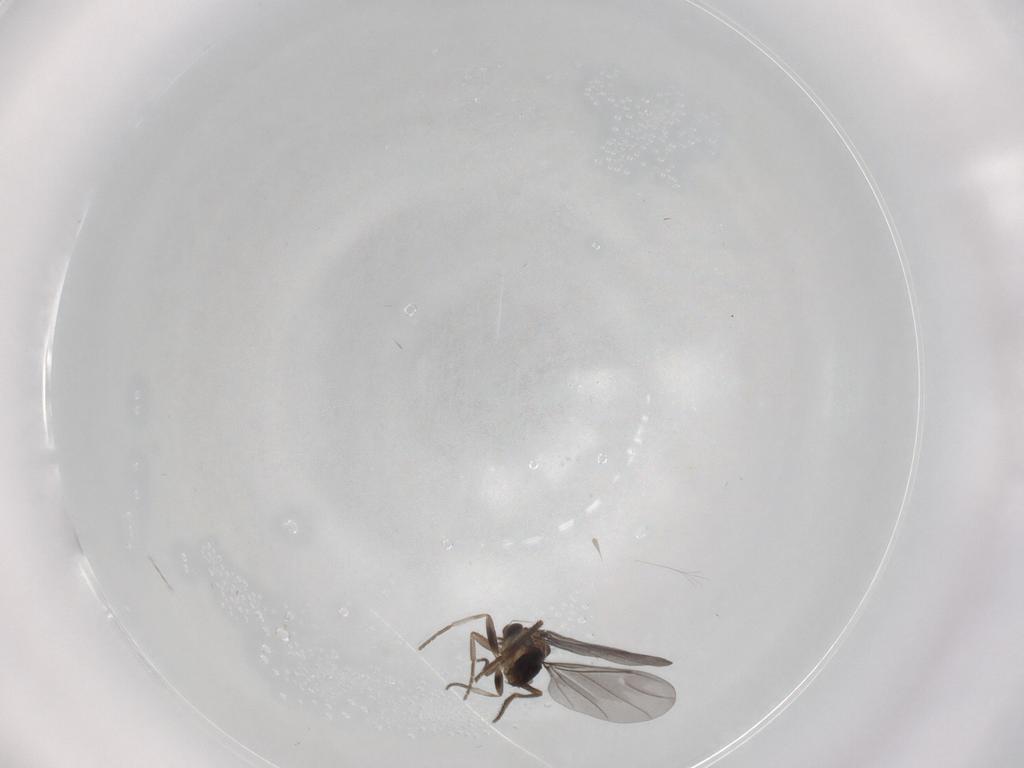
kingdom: Animalia
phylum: Arthropoda
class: Insecta
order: Diptera
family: Phoridae
